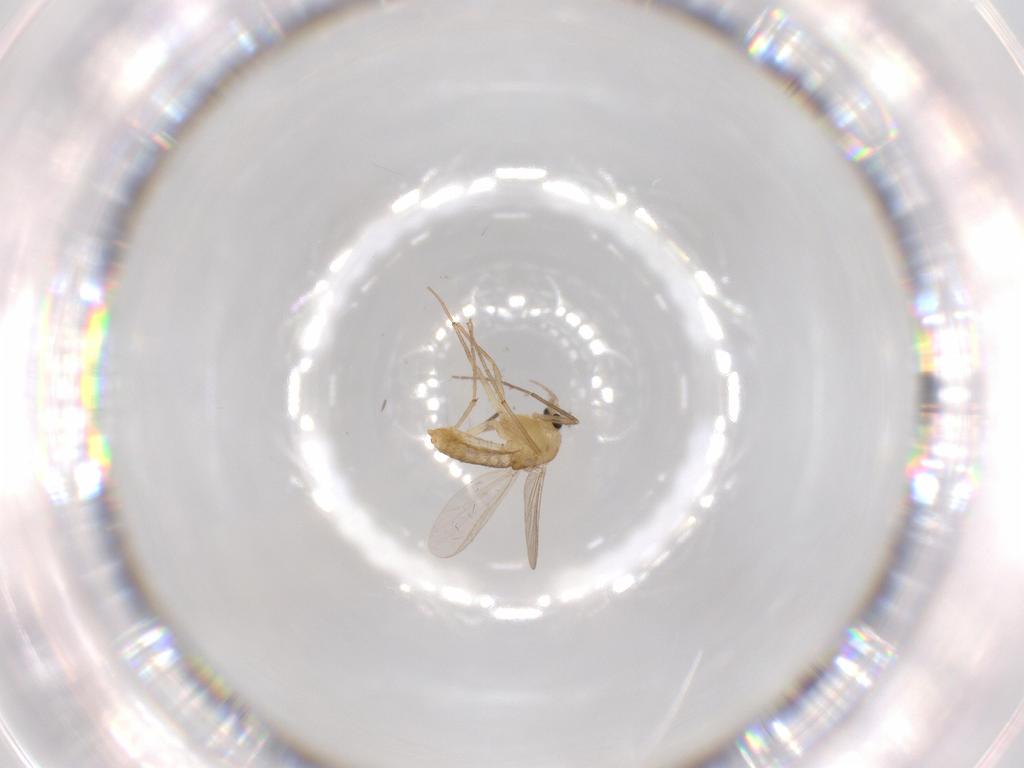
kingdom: Animalia
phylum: Arthropoda
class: Insecta
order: Diptera
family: Chironomidae
